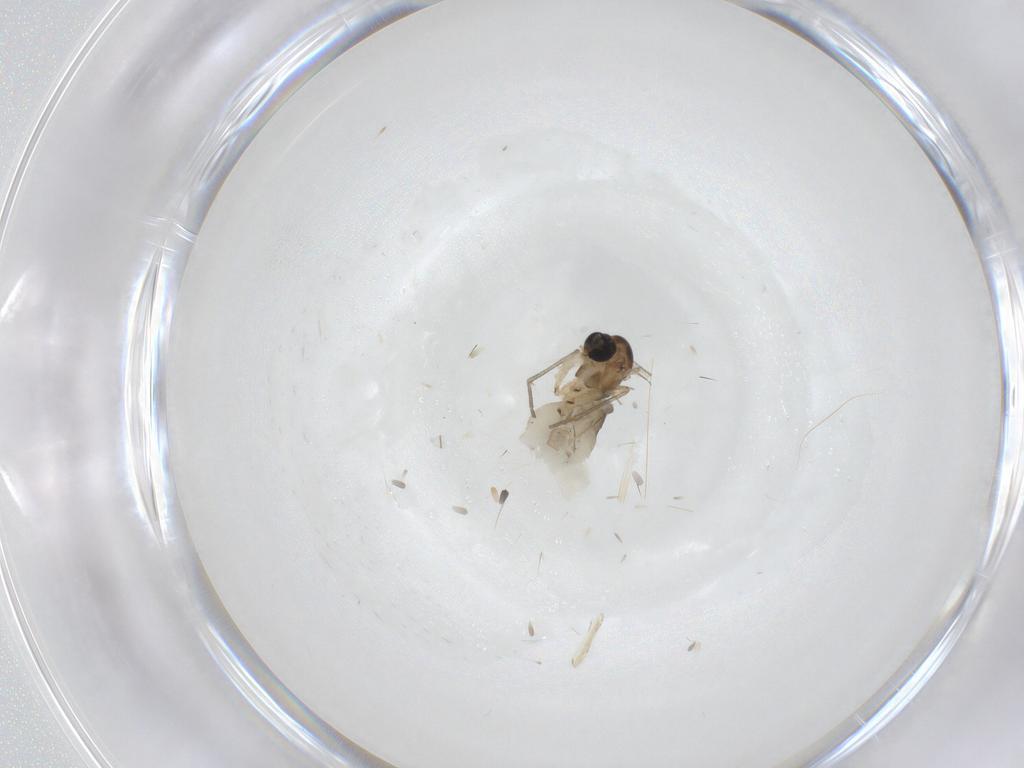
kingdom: Animalia
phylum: Arthropoda
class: Insecta
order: Diptera
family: Sciaridae
